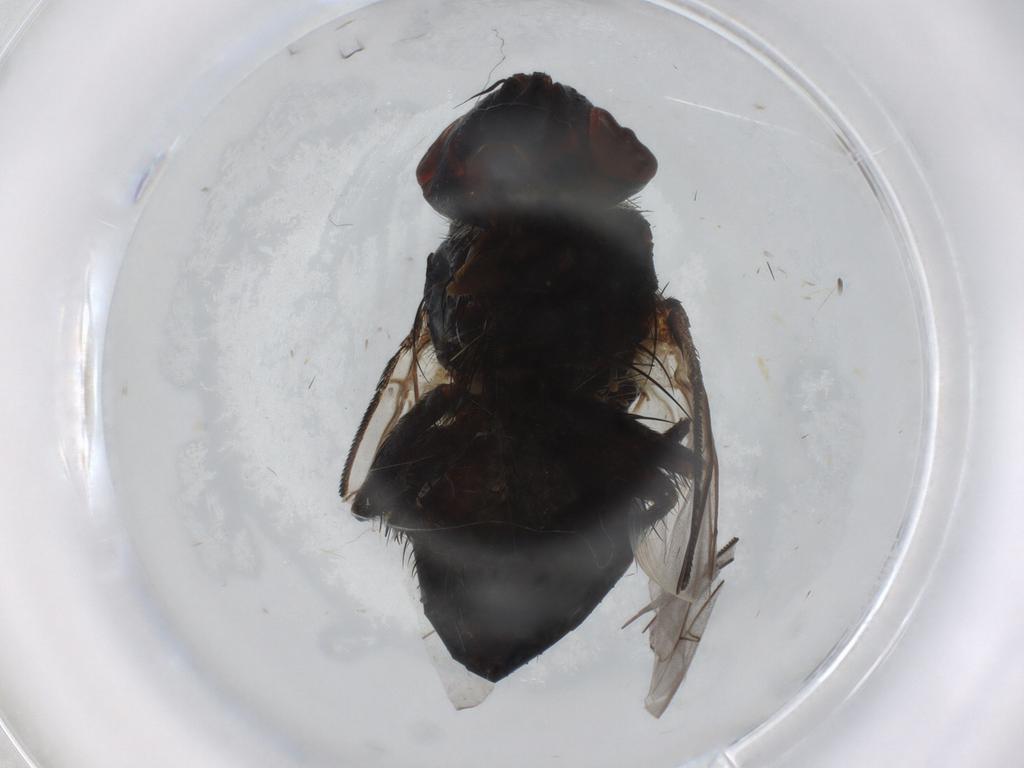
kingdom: Animalia
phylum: Arthropoda
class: Insecta
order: Diptera
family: Tachinidae
